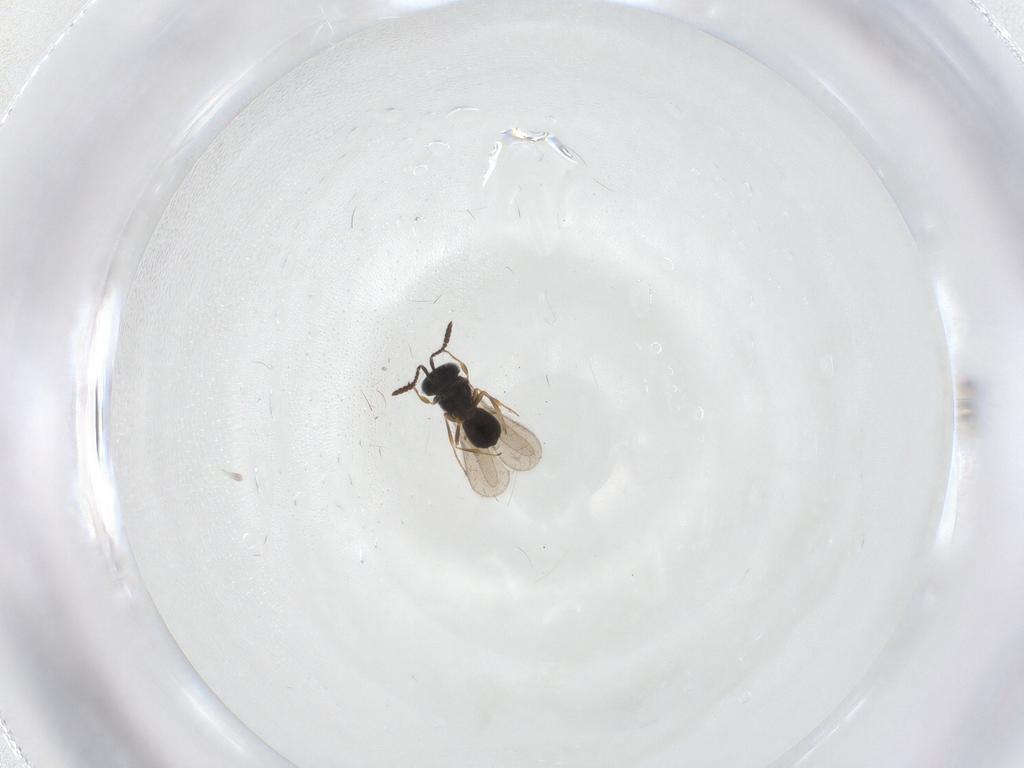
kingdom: Animalia
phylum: Arthropoda
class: Insecta
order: Hymenoptera
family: Scelionidae
